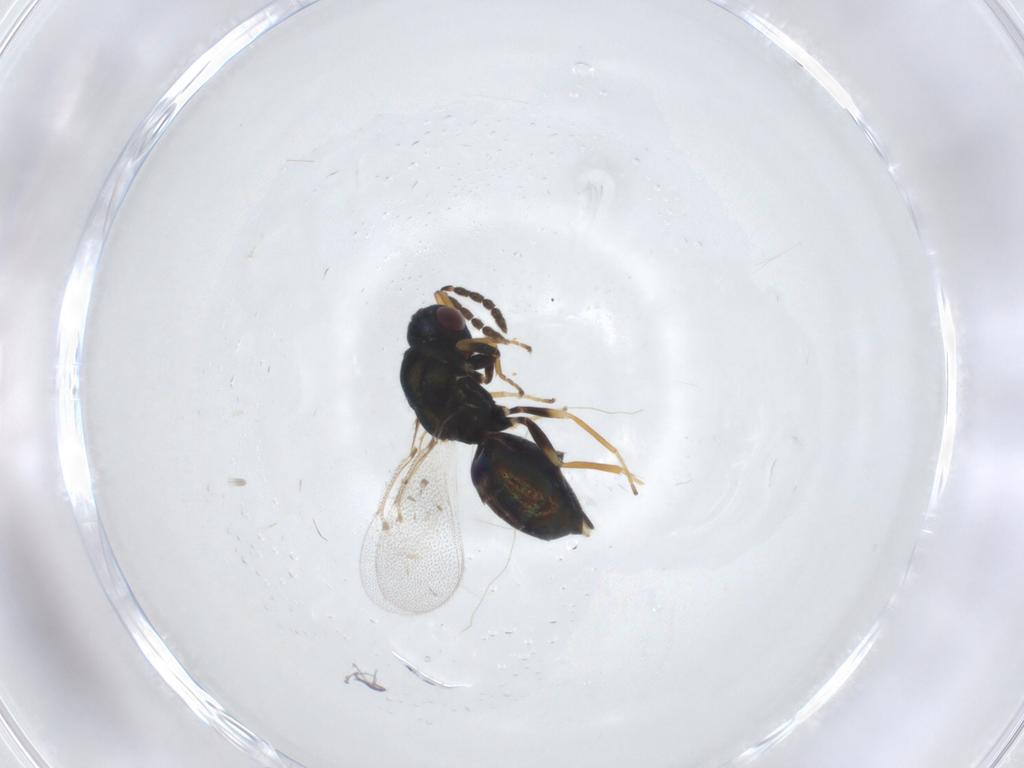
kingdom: Animalia
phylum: Arthropoda
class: Insecta
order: Hymenoptera
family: Eulophidae
